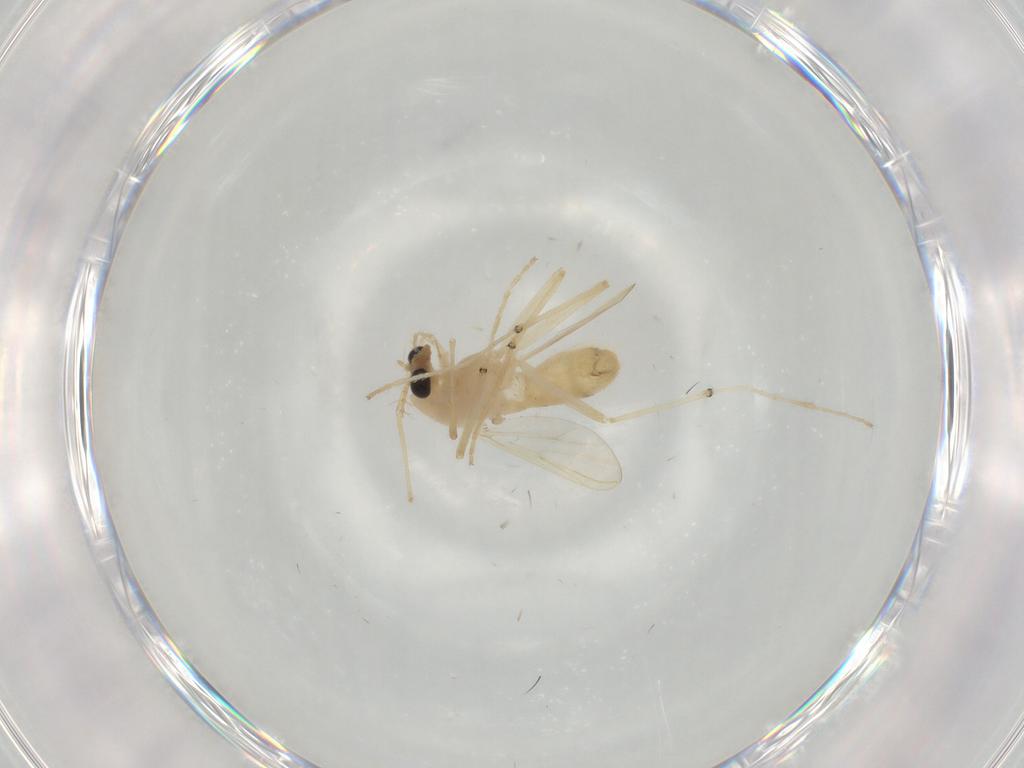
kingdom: Animalia
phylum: Arthropoda
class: Insecta
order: Diptera
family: Chironomidae
